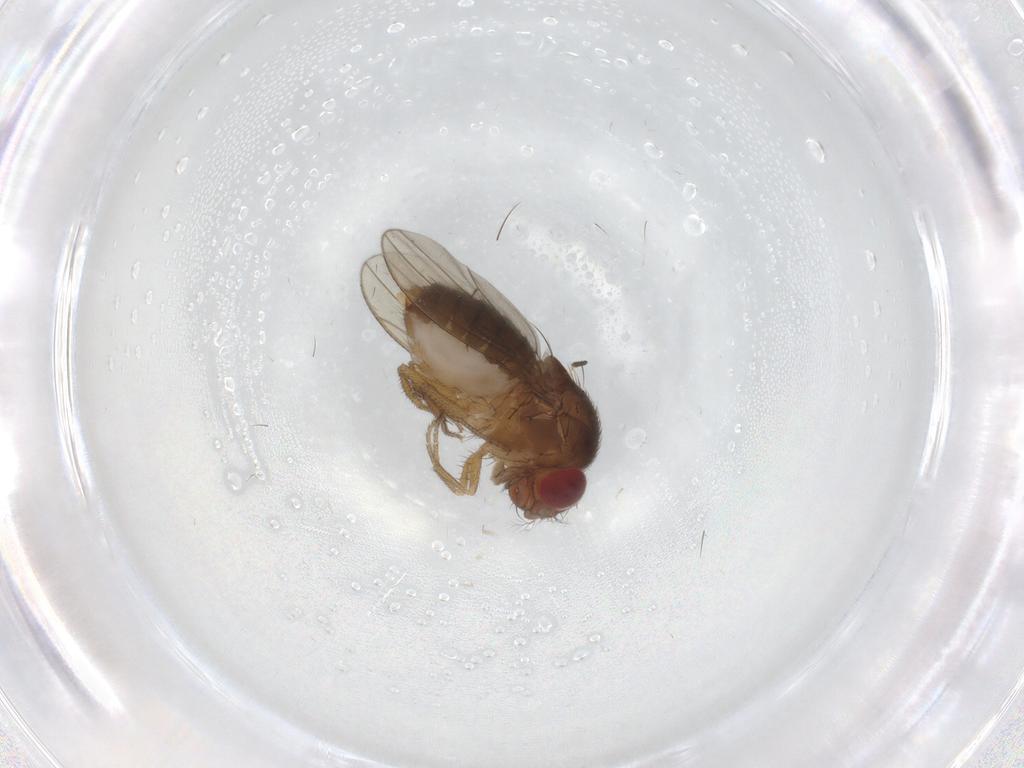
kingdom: Animalia
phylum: Arthropoda
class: Insecta
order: Diptera
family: Drosophilidae
